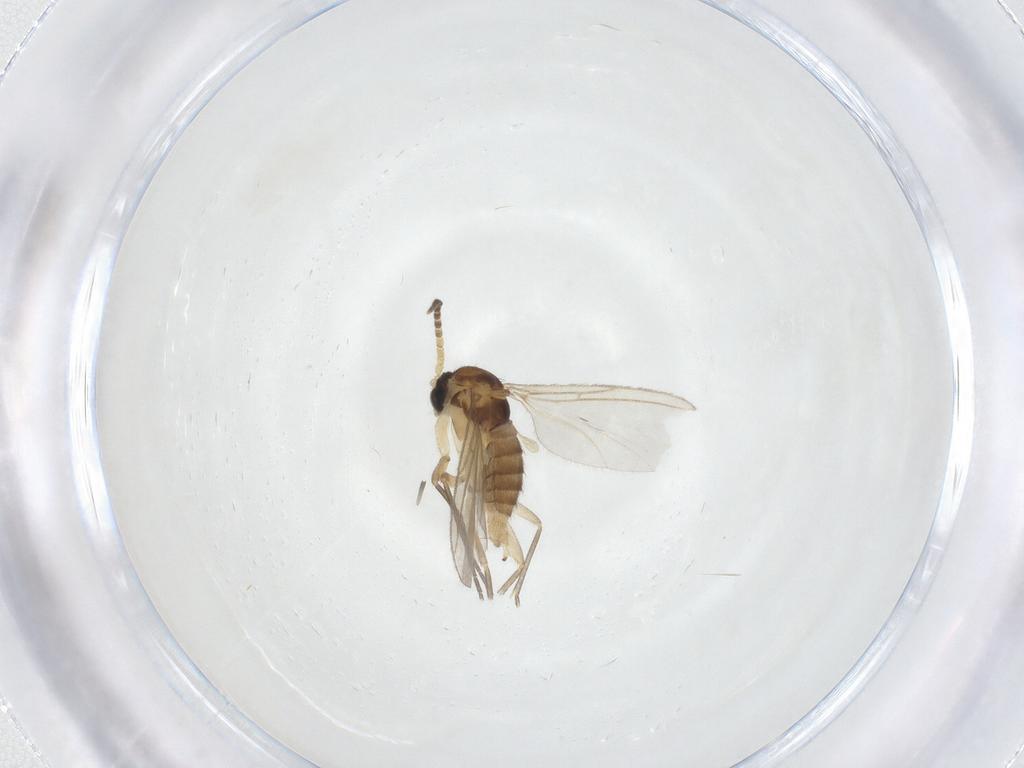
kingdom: Animalia
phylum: Arthropoda
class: Insecta
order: Diptera
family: Sciaridae
